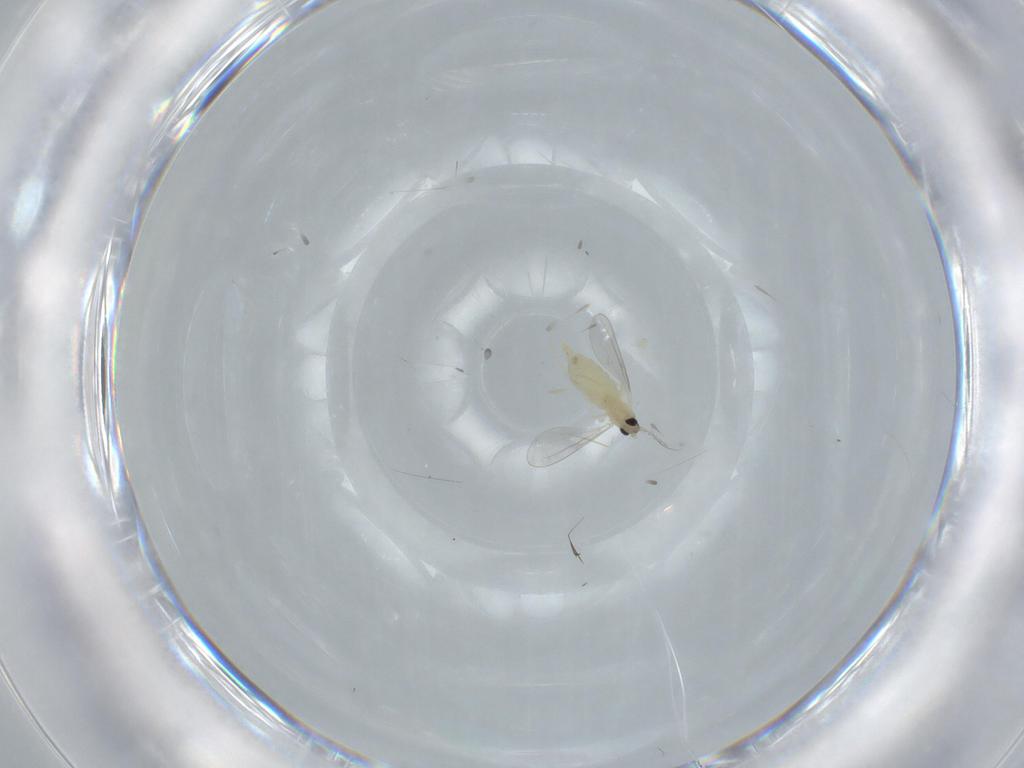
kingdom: Animalia
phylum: Arthropoda
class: Insecta
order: Diptera
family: Cecidomyiidae
